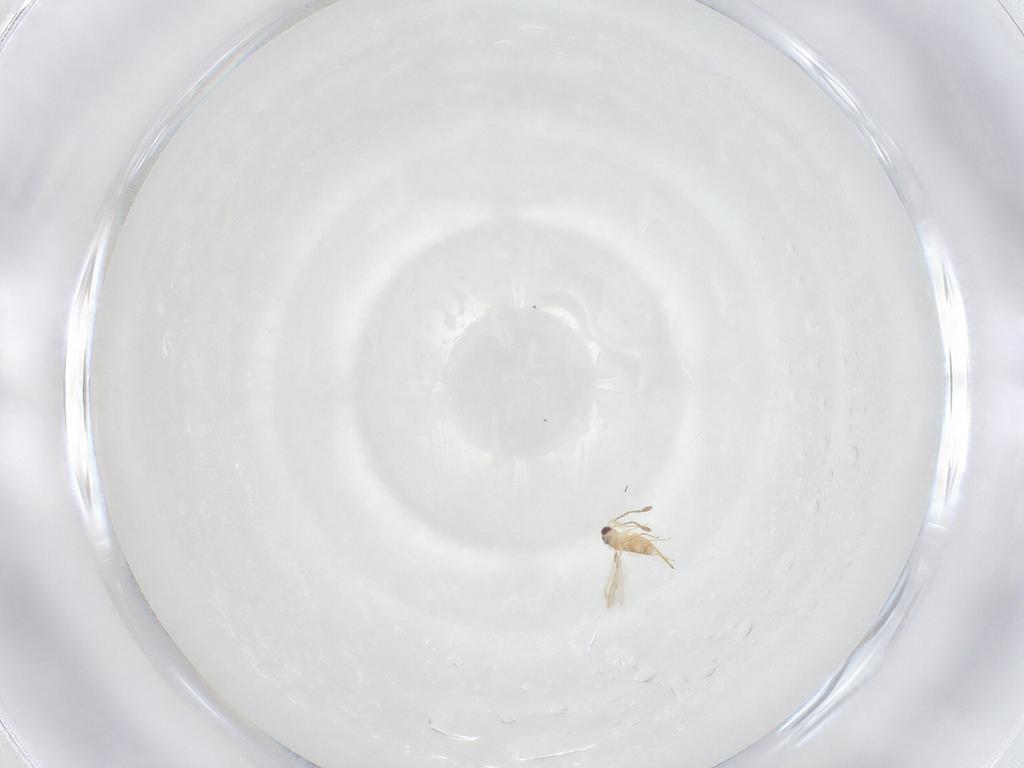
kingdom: Animalia
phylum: Arthropoda
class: Insecta
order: Hymenoptera
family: Mymaridae
